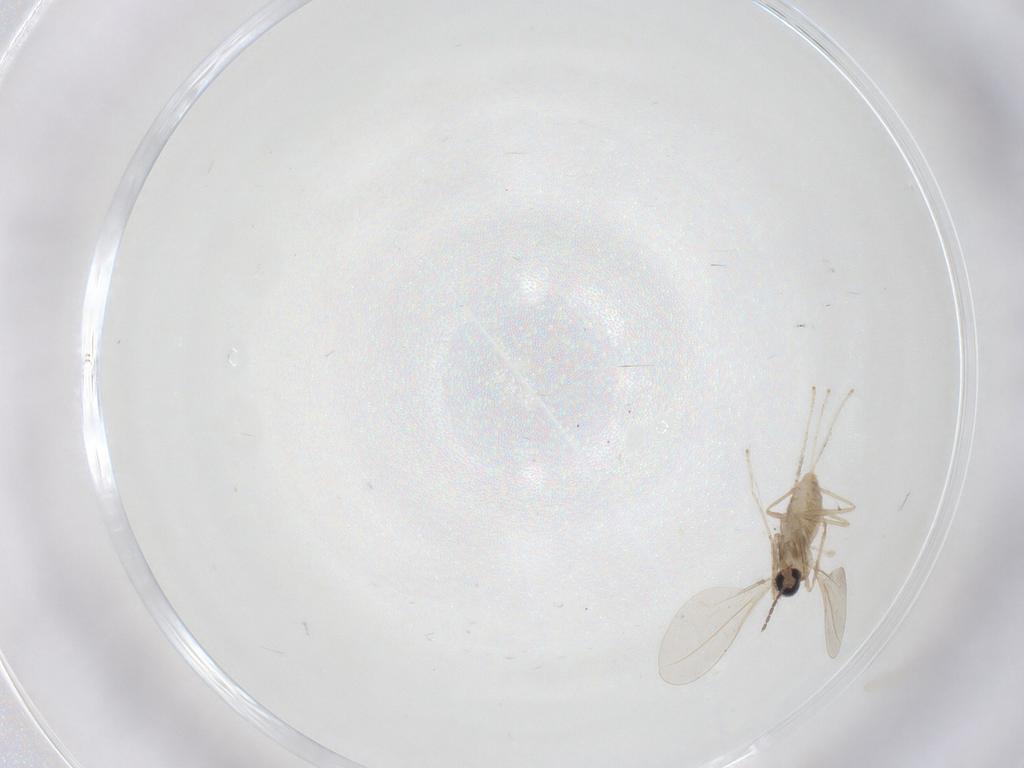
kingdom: Animalia
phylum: Arthropoda
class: Insecta
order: Diptera
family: Cecidomyiidae
